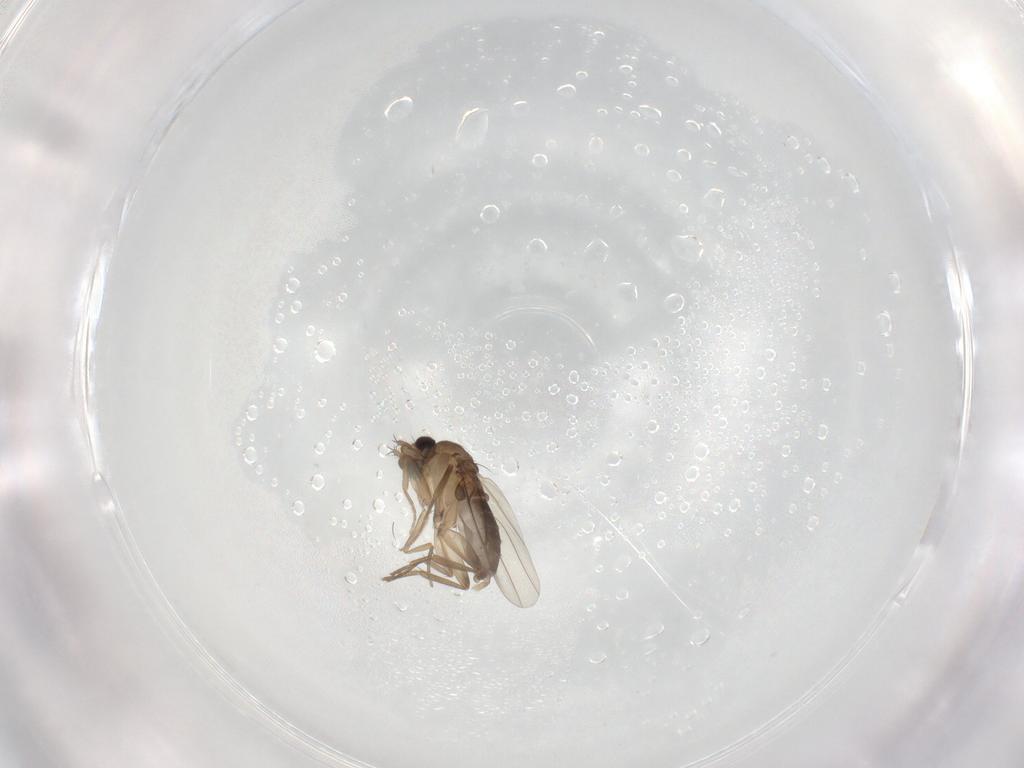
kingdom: Animalia
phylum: Arthropoda
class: Insecta
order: Diptera
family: Phoridae
